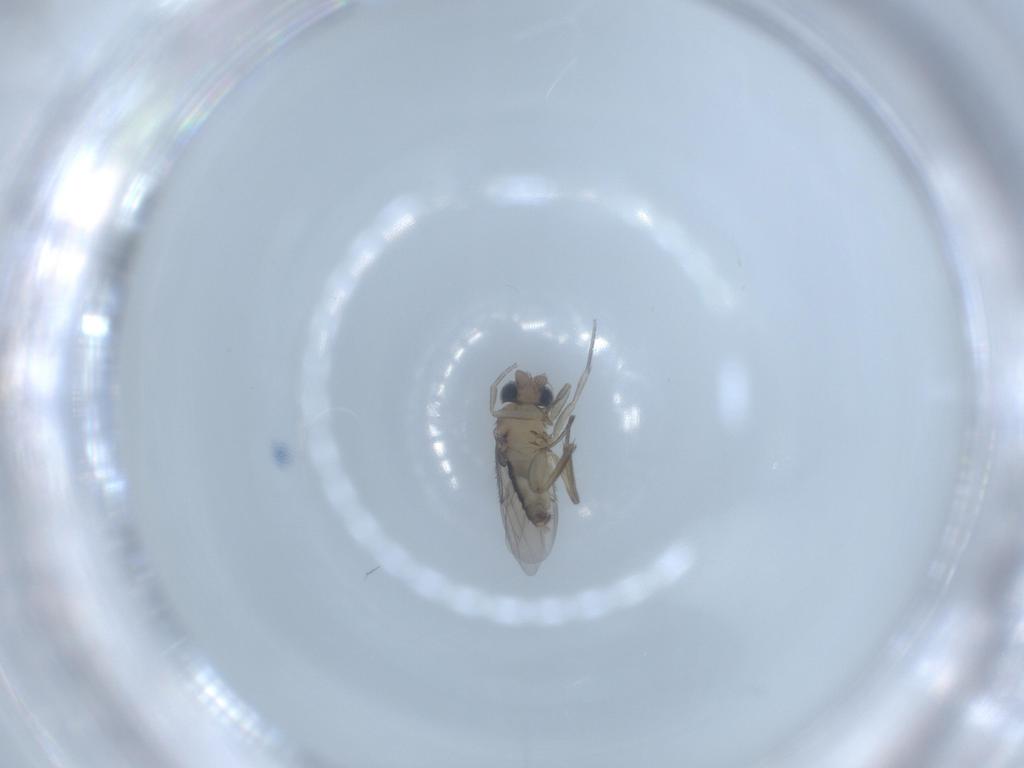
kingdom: Animalia
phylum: Arthropoda
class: Insecta
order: Diptera
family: Phoridae
